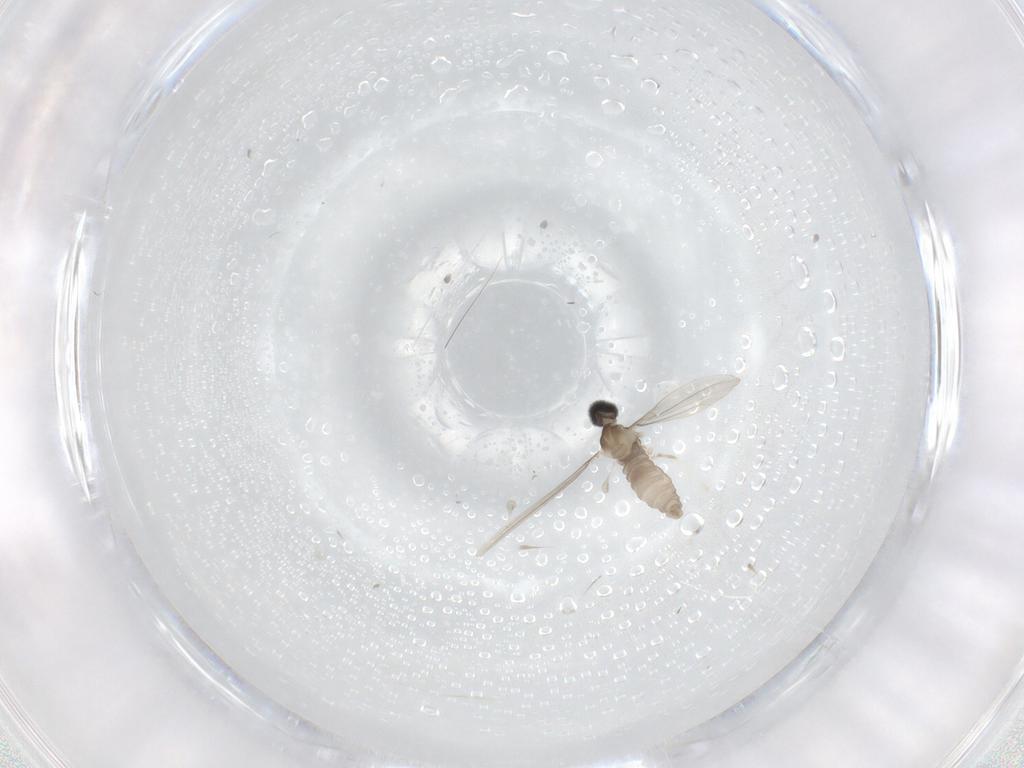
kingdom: Animalia
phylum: Arthropoda
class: Insecta
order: Diptera
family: Cecidomyiidae
